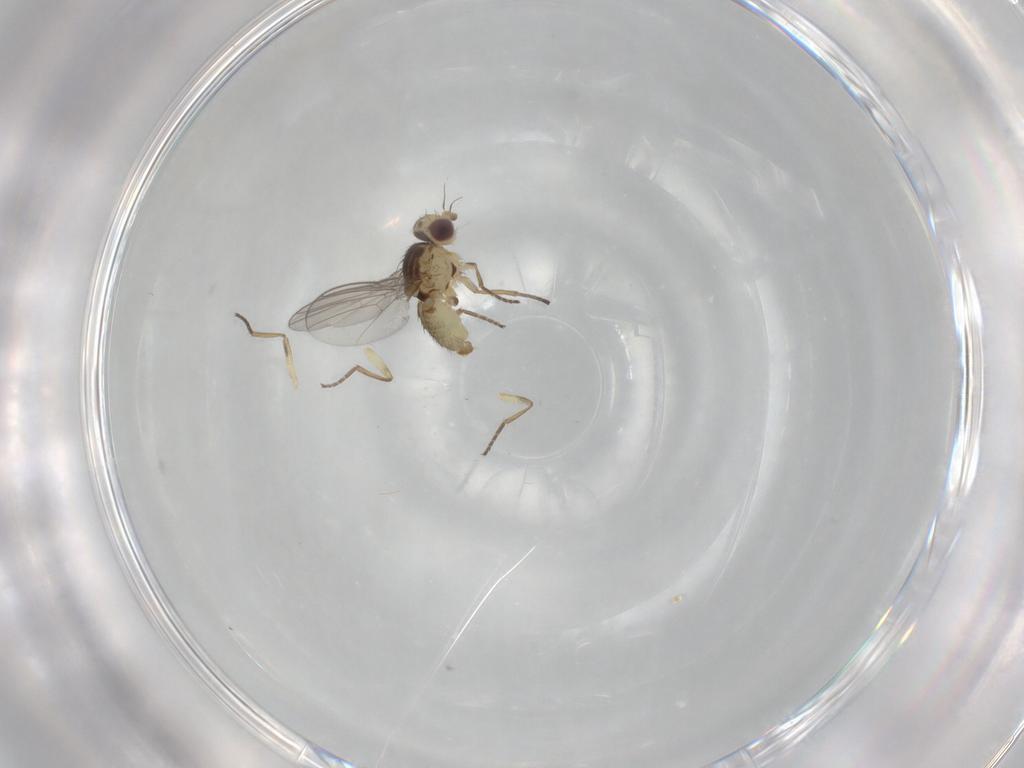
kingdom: Animalia
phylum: Arthropoda
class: Insecta
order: Diptera
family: Agromyzidae
